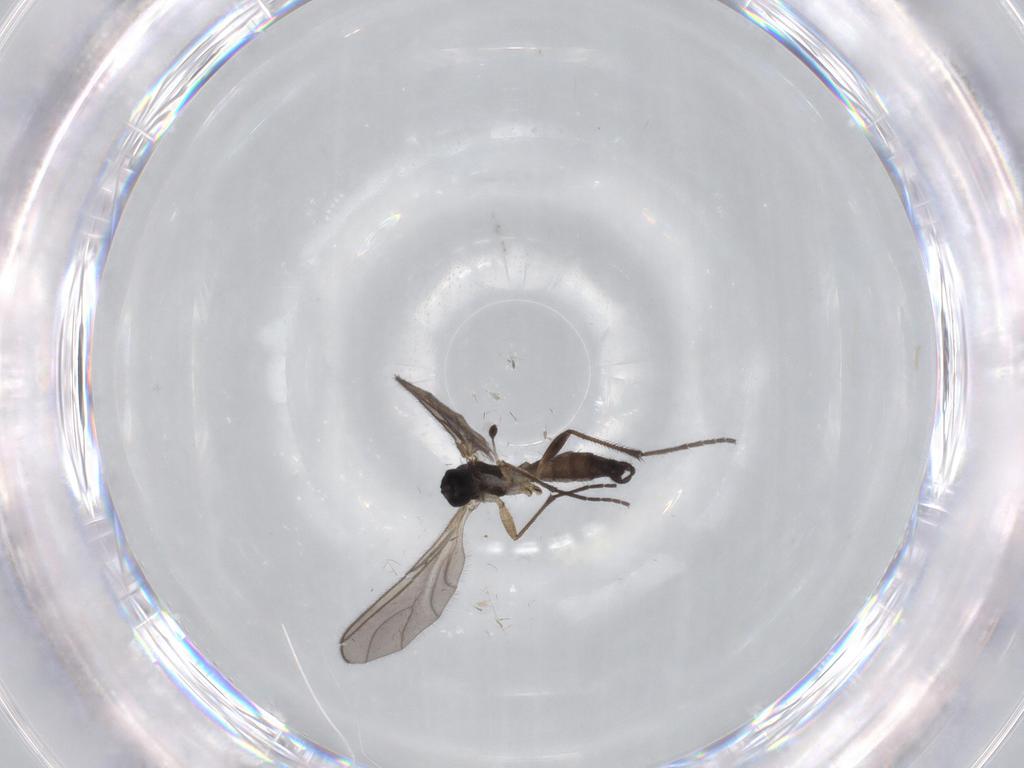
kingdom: Animalia
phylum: Arthropoda
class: Insecta
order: Diptera
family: Sciaridae
